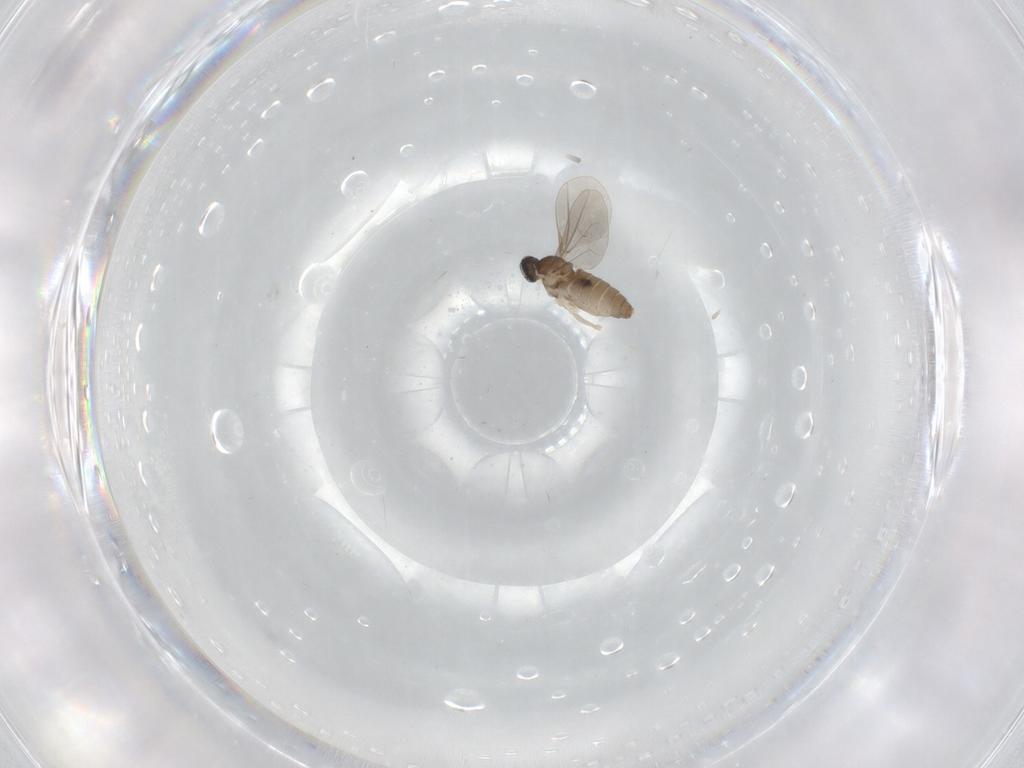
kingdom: Animalia
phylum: Arthropoda
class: Insecta
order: Diptera
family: Cecidomyiidae
